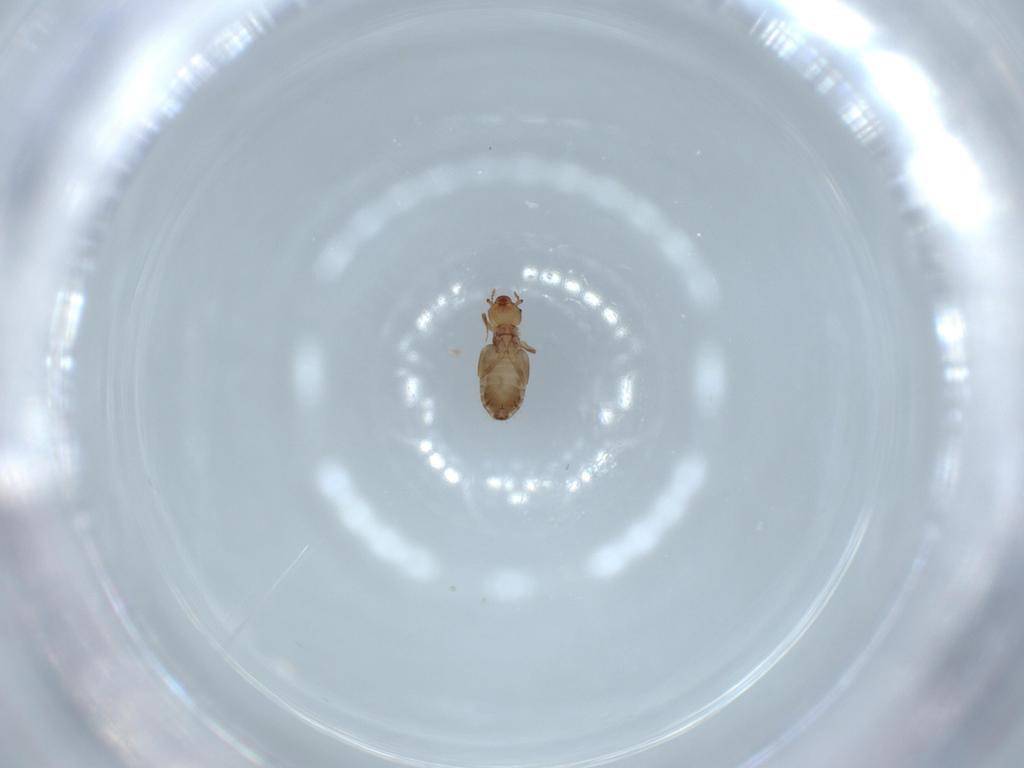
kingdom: Animalia
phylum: Arthropoda
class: Insecta
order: Psocodea
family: Liposcelididae
